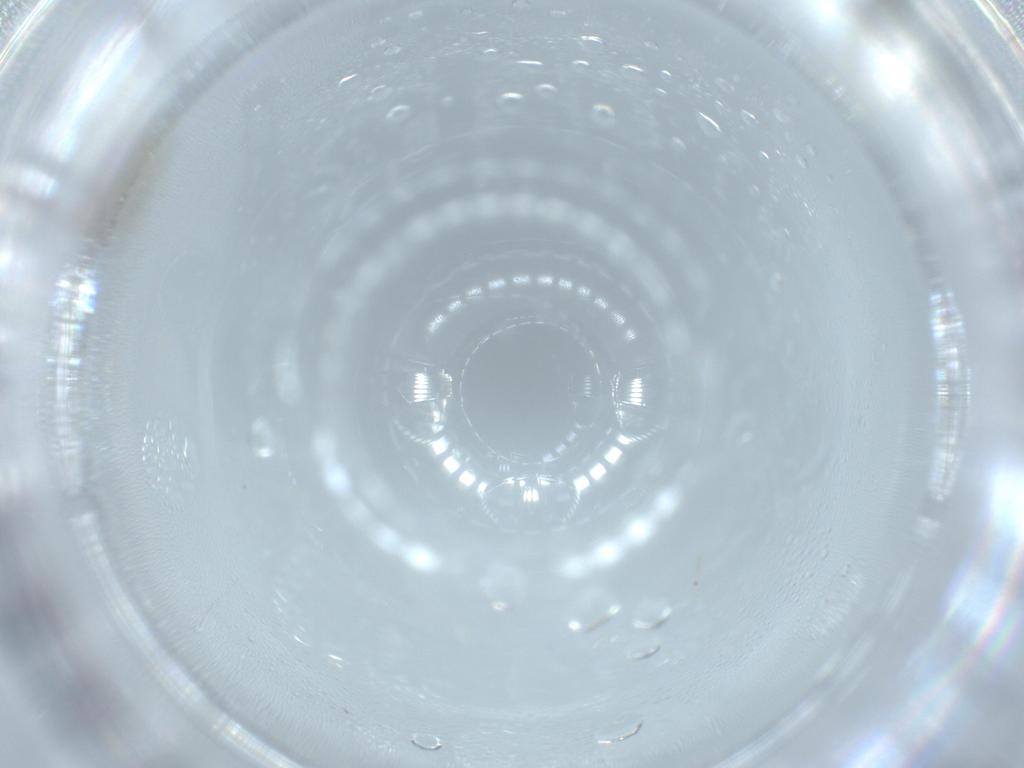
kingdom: Animalia
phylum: Arthropoda
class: Insecta
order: Diptera
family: Cecidomyiidae
